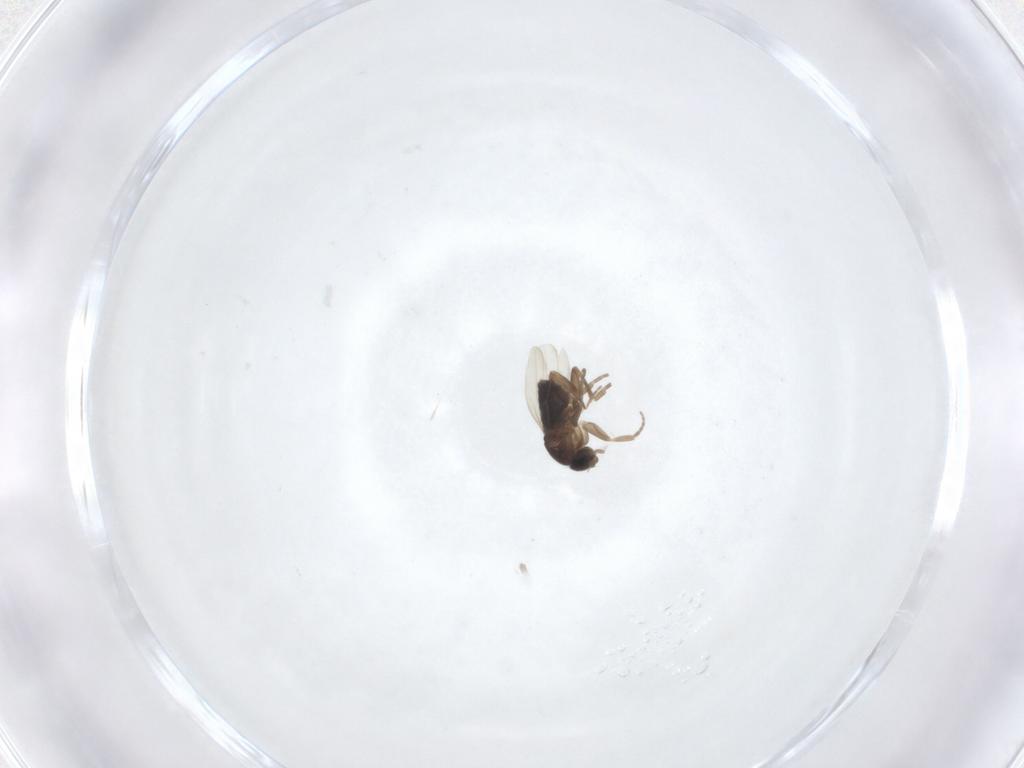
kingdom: Animalia
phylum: Arthropoda
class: Insecta
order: Diptera
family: Phoridae
